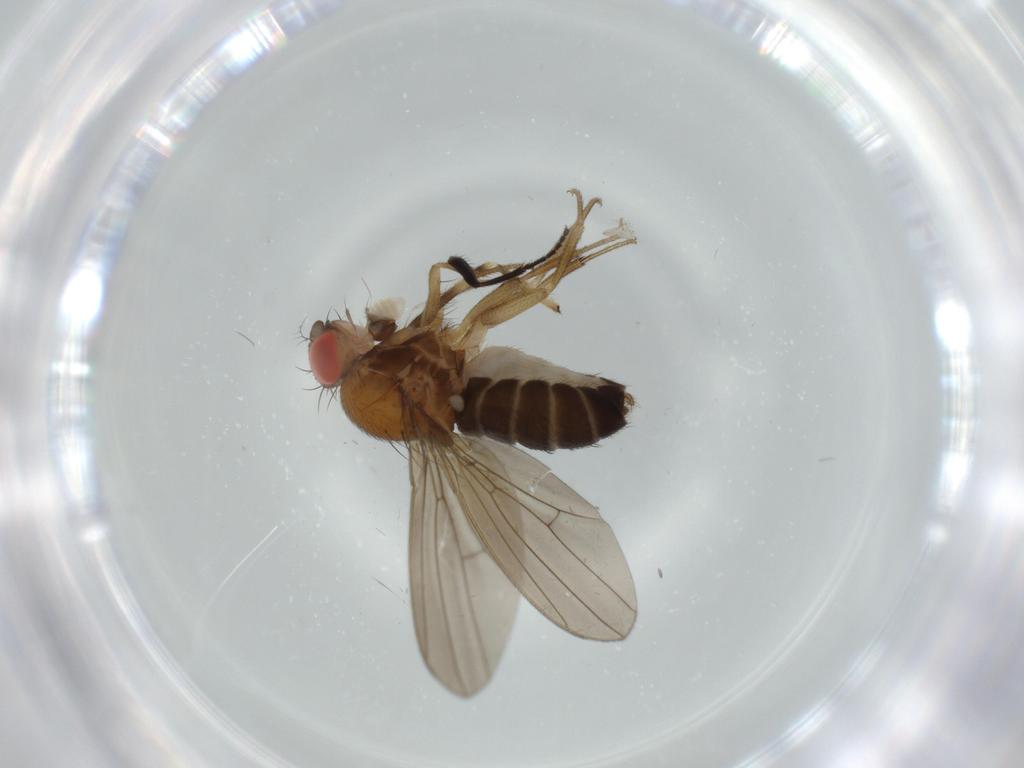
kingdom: Animalia
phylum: Arthropoda
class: Insecta
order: Diptera
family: Drosophilidae
